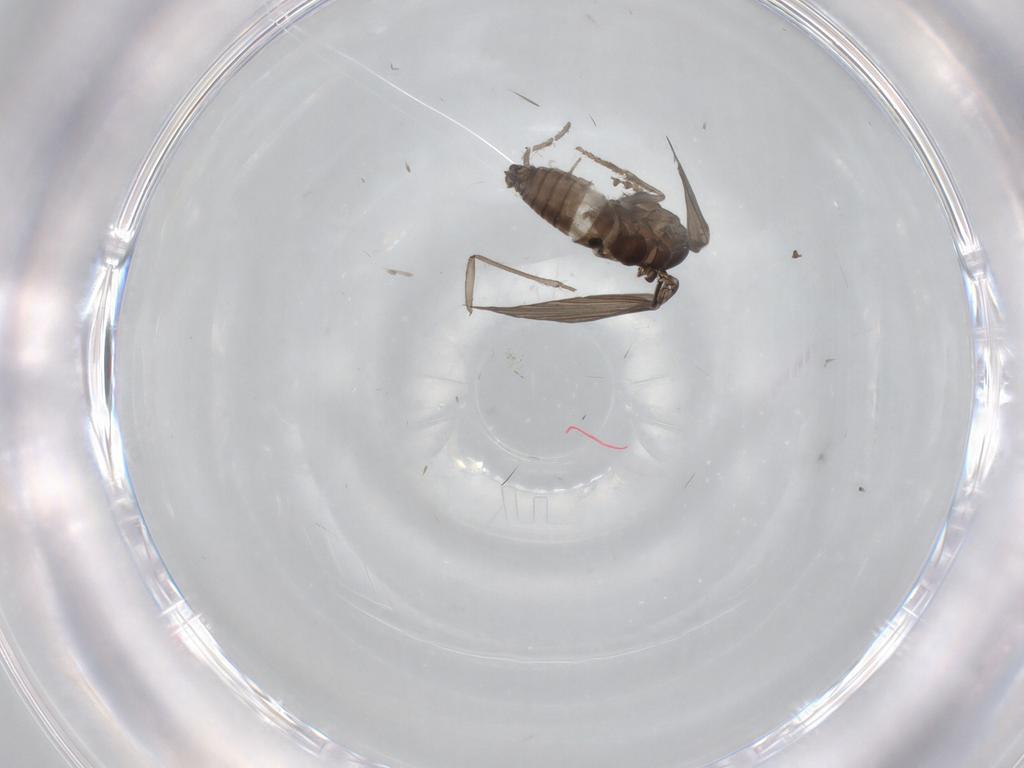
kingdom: Animalia
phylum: Arthropoda
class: Insecta
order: Diptera
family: Psychodidae
